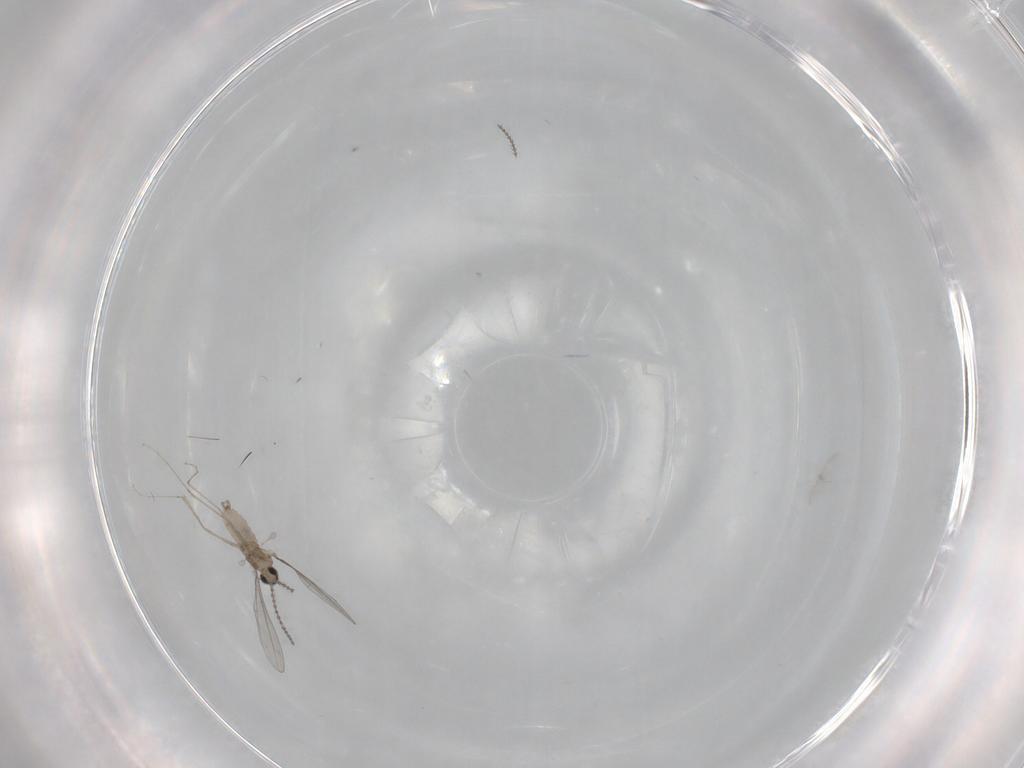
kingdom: Animalia
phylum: Arthropoda
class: Insecta
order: Diptera
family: Cecidomyiidae
